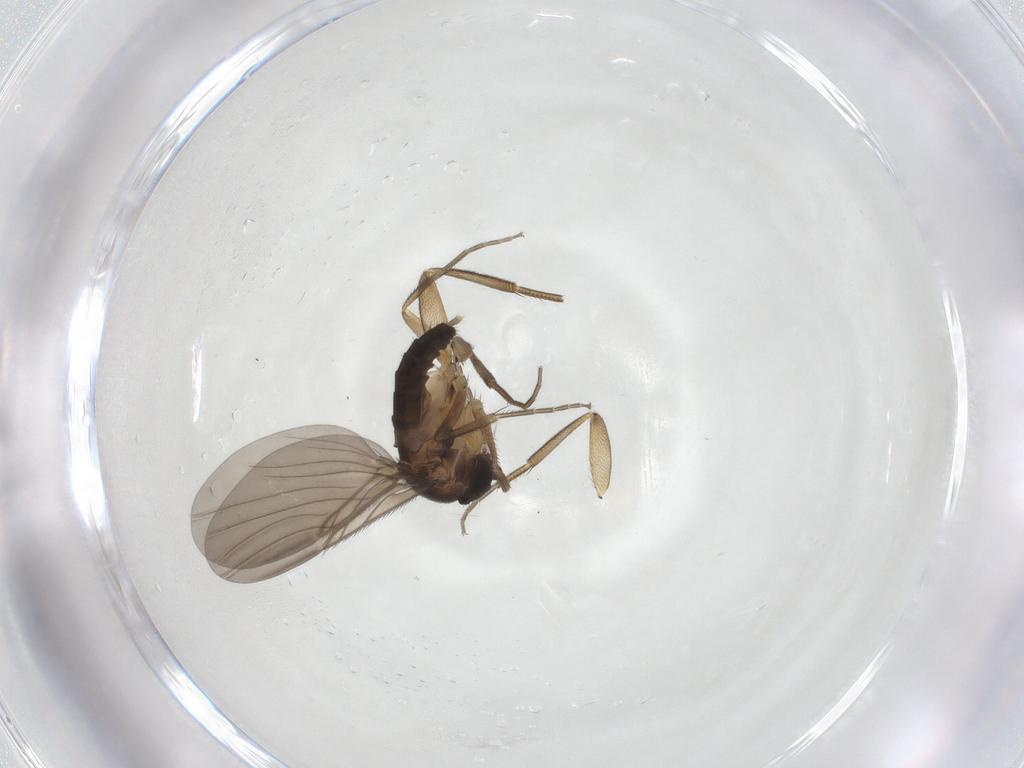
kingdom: Animalia
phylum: Arthropoda
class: Insecta
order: Diptera
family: Phoridae
